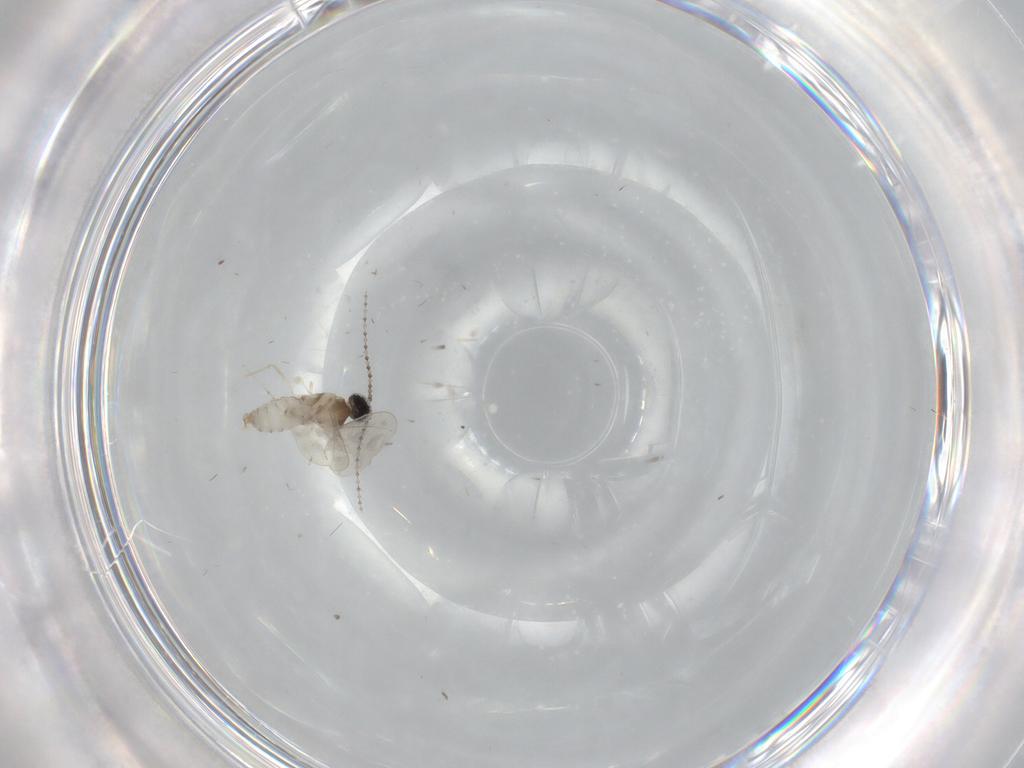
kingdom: Animalia
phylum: Arthropoda
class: Insecta
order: Diptera
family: Cecidomyiidae
